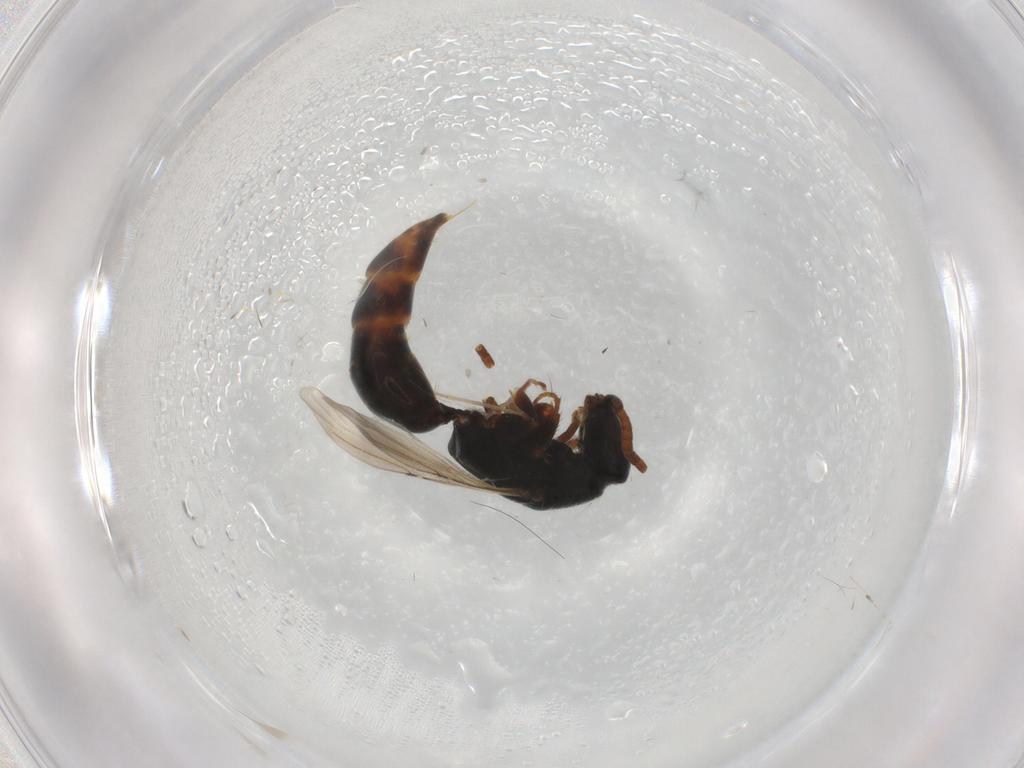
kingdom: Animalia
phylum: Arthropoda
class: Insecta
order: Hymenoptera
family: Bethylidae
